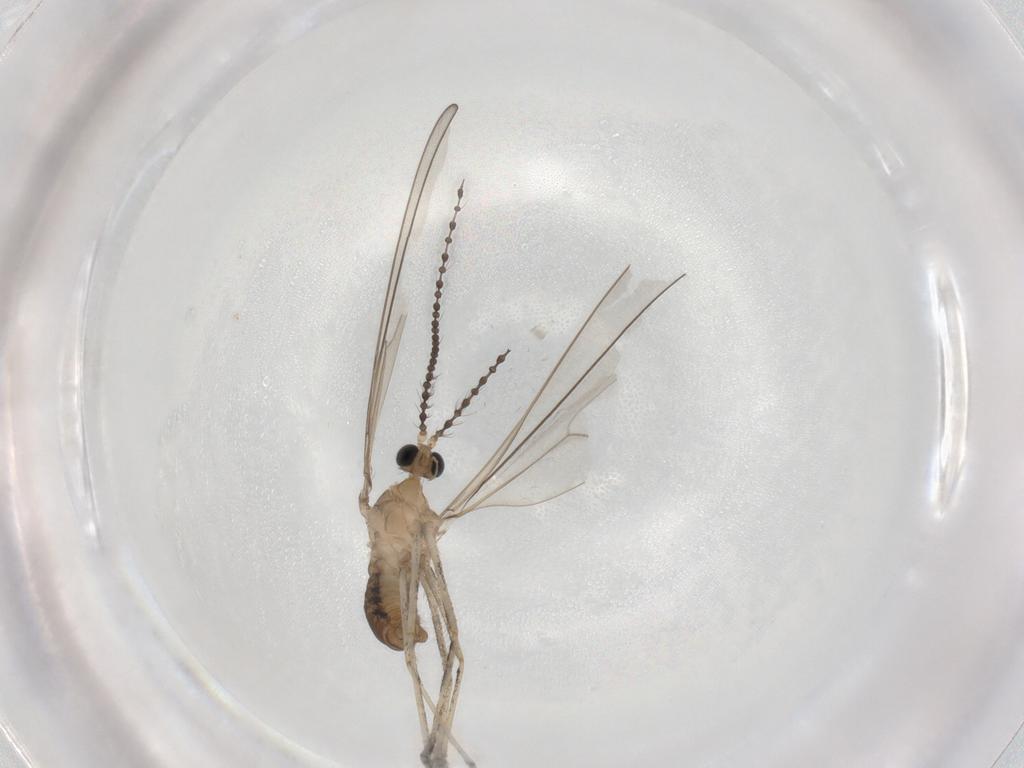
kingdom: Animalia
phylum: Arthropoda
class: Insecta
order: Diptera
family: Cecidomyiidae
